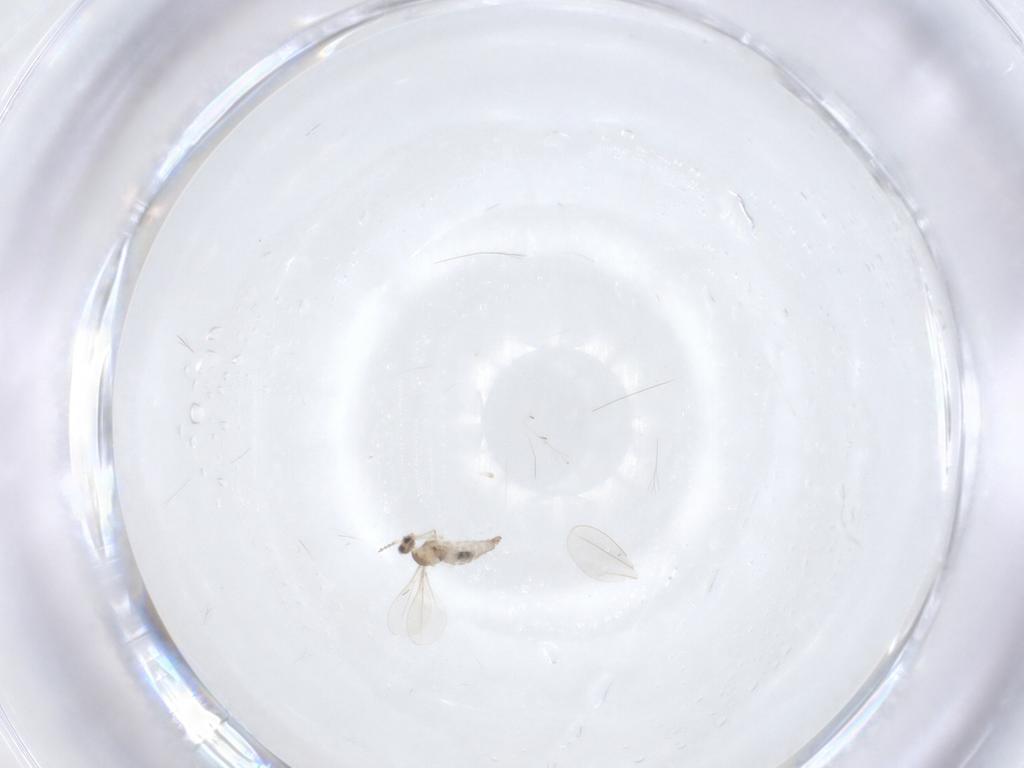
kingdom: Animalia
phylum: Arthropoda
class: Insecta
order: Diptera
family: Cecidomyiidae
